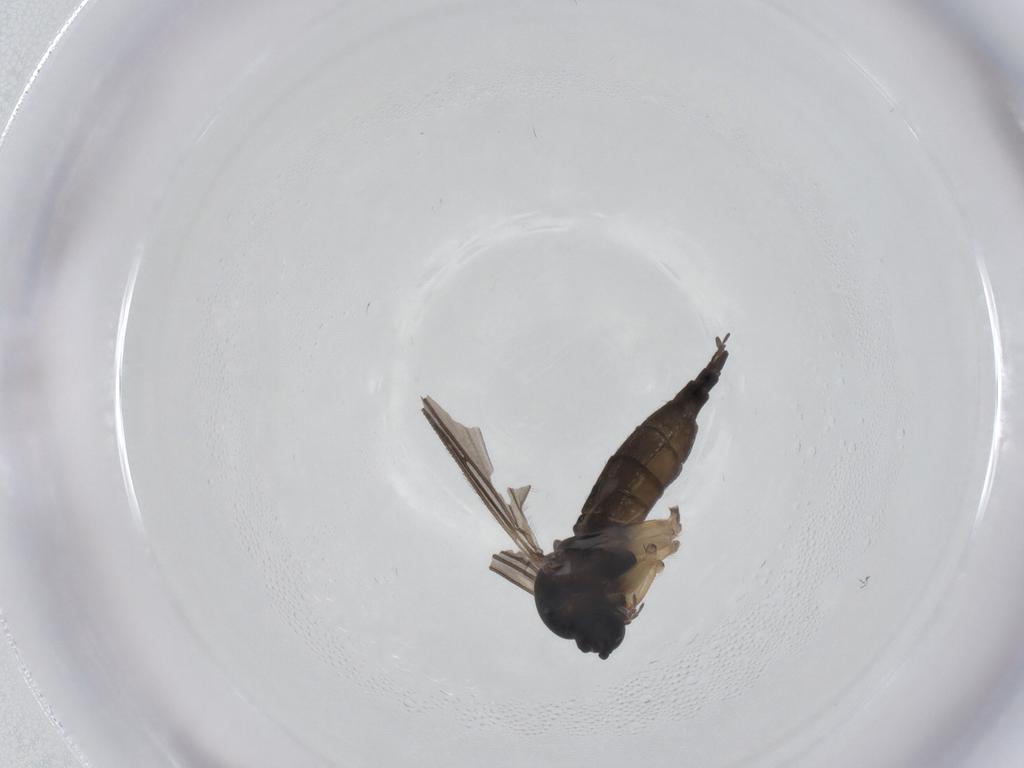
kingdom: Animalia
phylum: Arthropoda
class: Insecta
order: Diptera
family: Sciaridae
